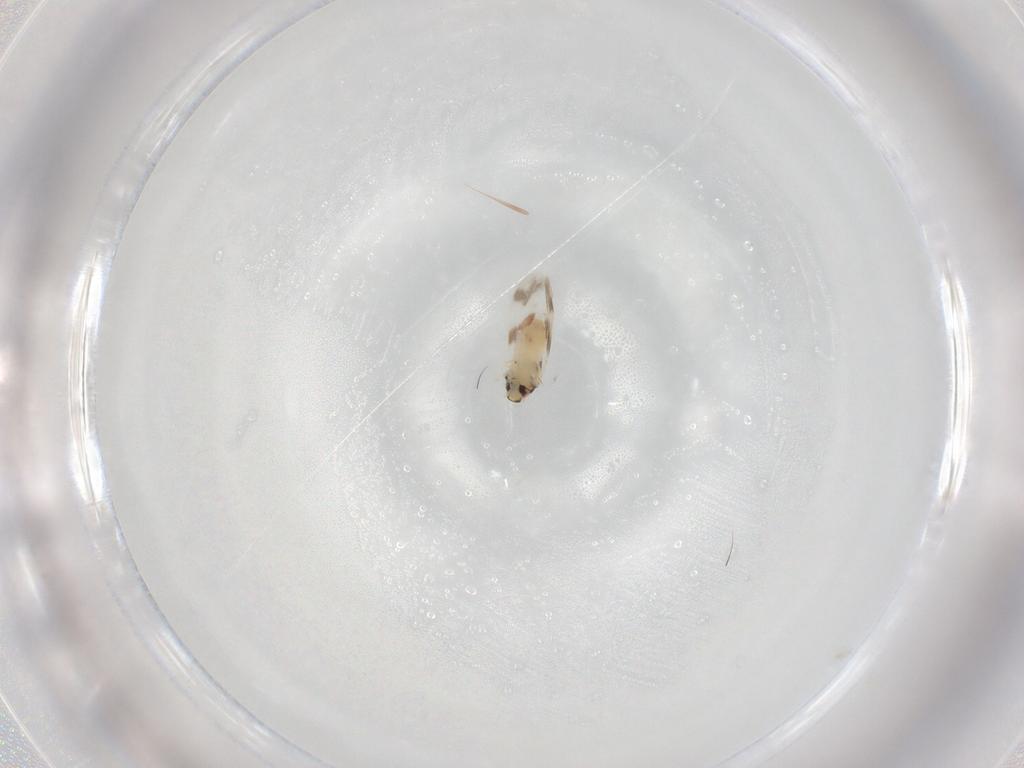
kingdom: Animalia
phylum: Arthropoda
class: Insecta
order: Hemiptera
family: Aleyrodidae
